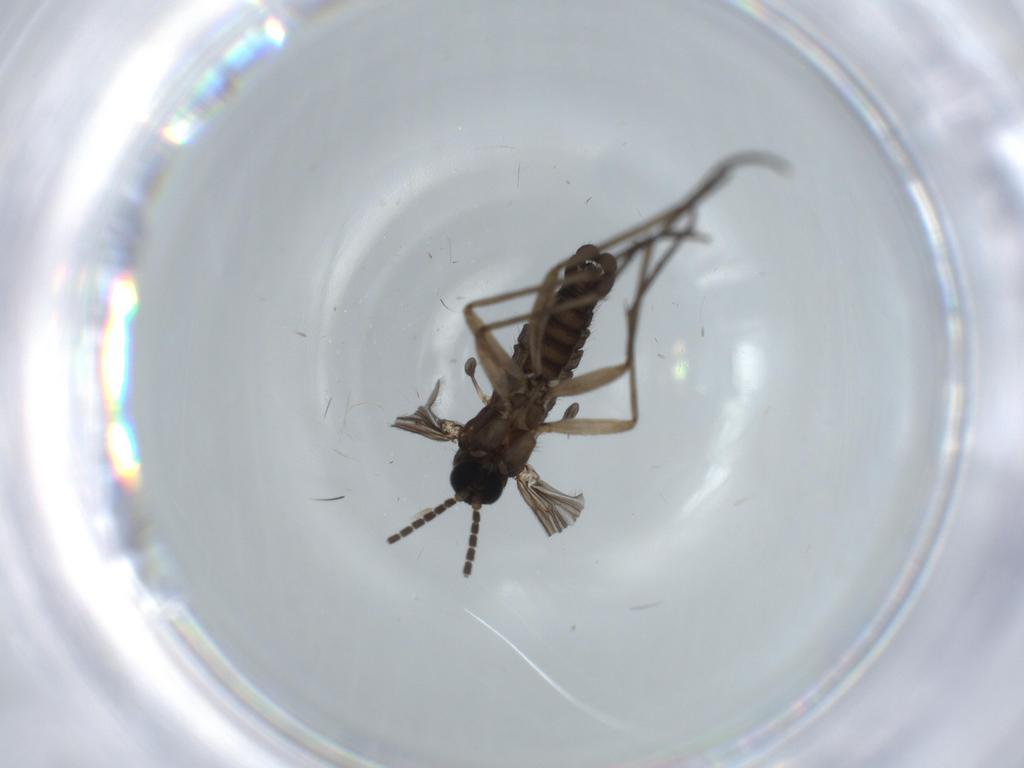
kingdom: Animalia
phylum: Arthropoda
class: Insecta
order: Diptera
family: Sciaridae
